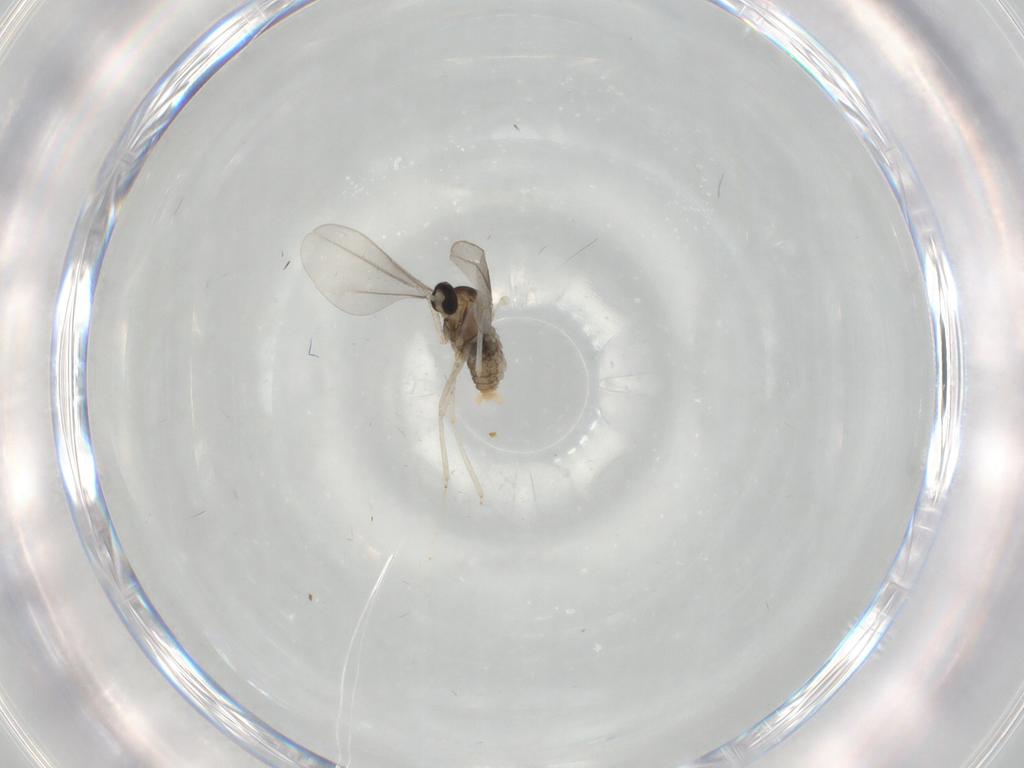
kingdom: Animalia
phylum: Arthropoda
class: Insecta
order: Diptera
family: Cecidomyiidae
